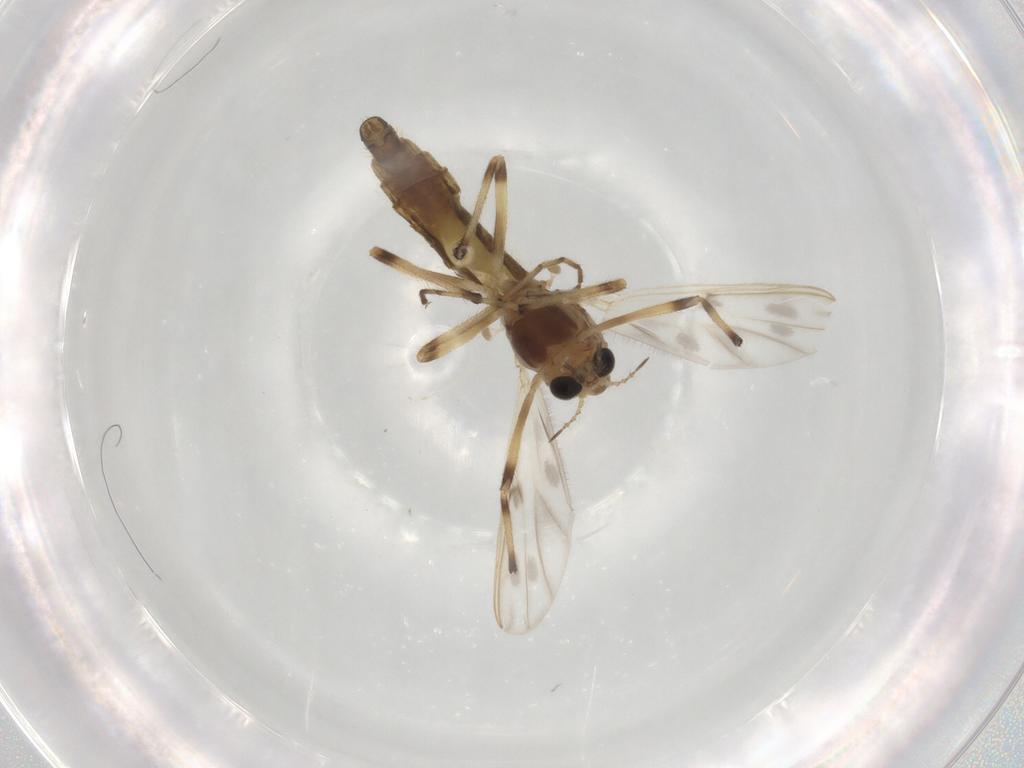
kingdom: Animalia
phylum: Arthropoda
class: Insecta
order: Diptera
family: Chironomidae
